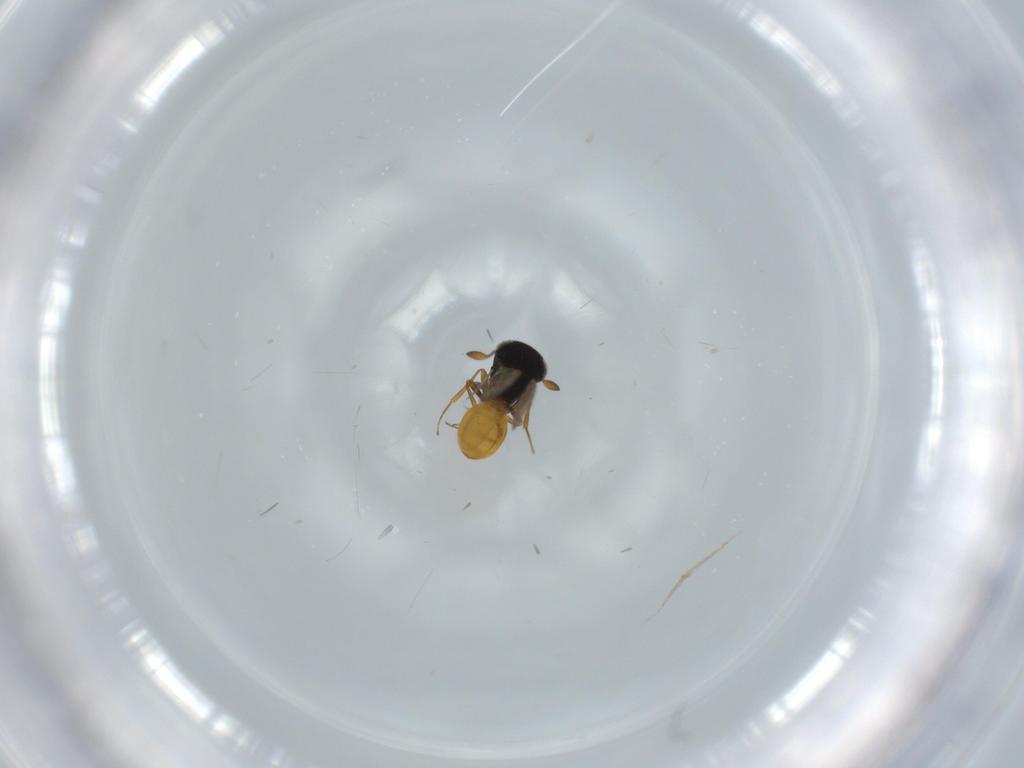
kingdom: Animalia
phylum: Arthropoda
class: Insecta
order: Hymenoptera
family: Scelionidae
